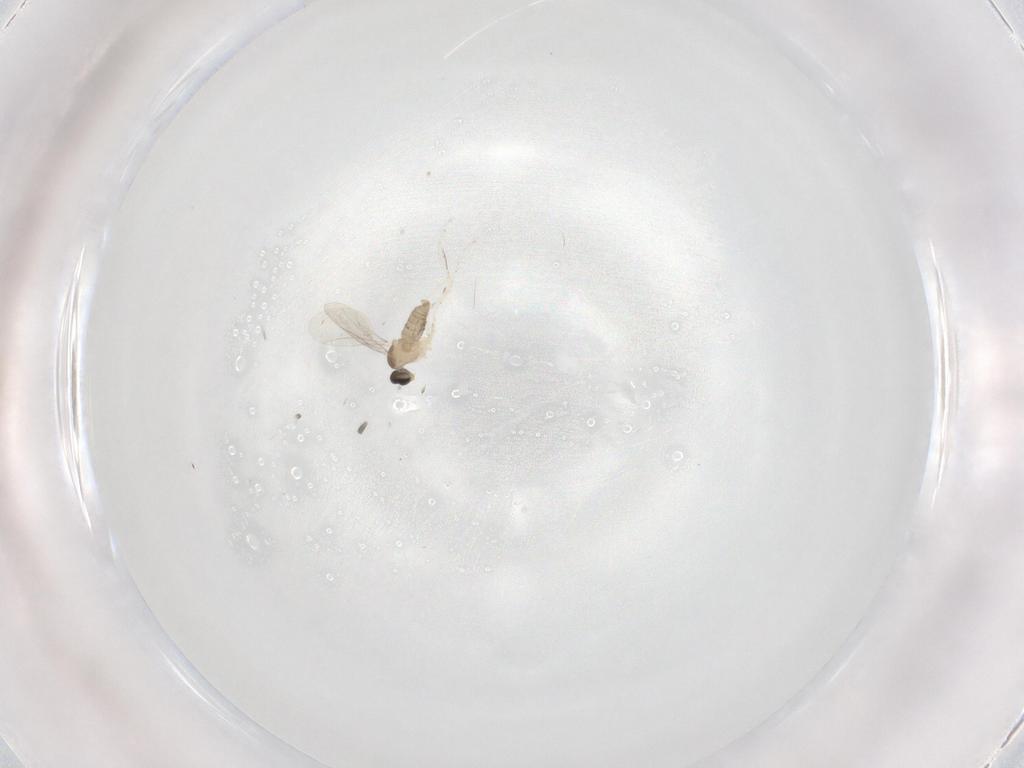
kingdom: Animalia
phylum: Arthropoda
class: Insecta
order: Diptera
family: Cecidomyiidae
